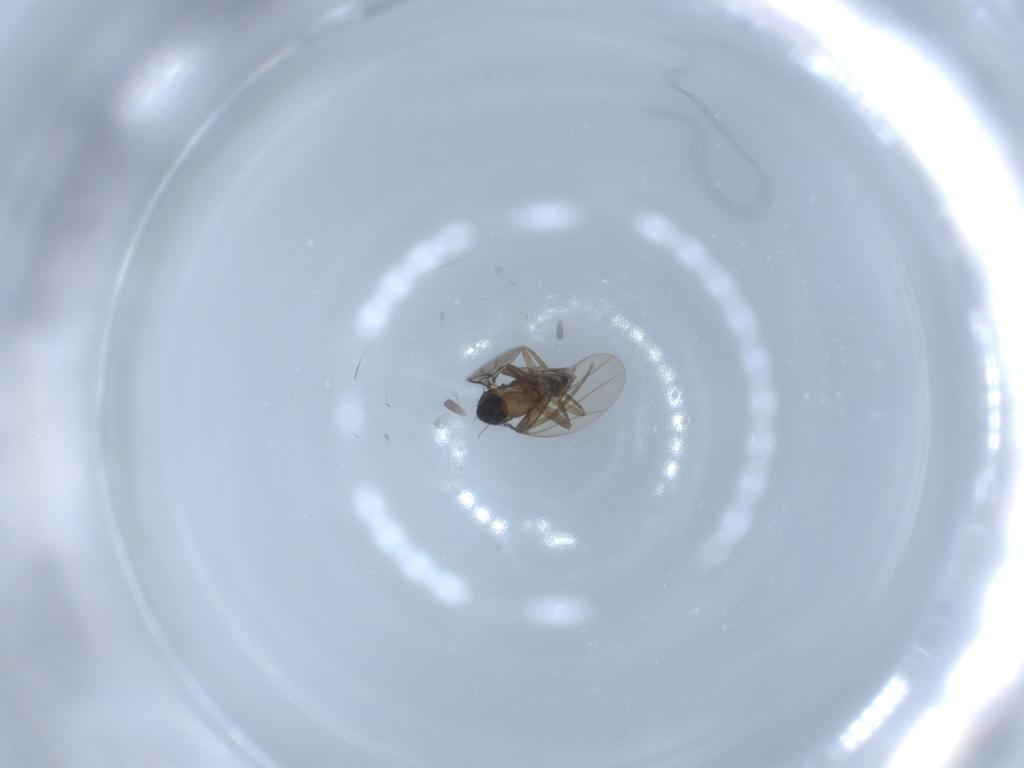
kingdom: Animalia
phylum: Arthropoda
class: Insecta
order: Diptera
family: Phoridae
